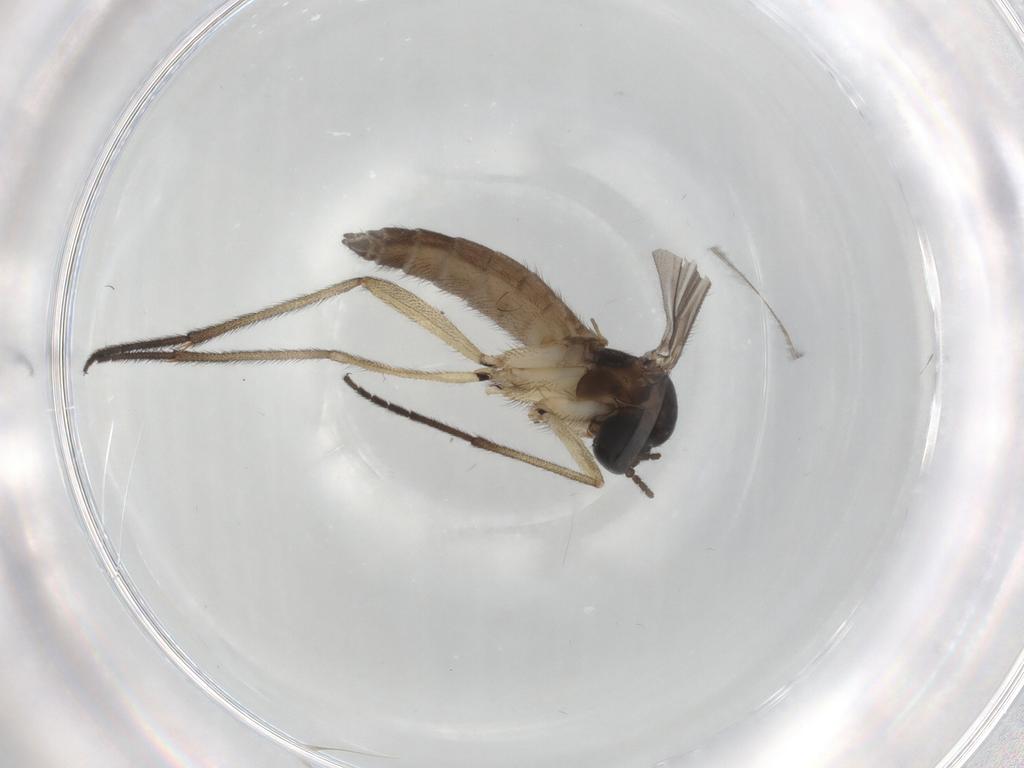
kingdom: Animalia
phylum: Arthropoda
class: Insecta
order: Diptera
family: Sciaridae
